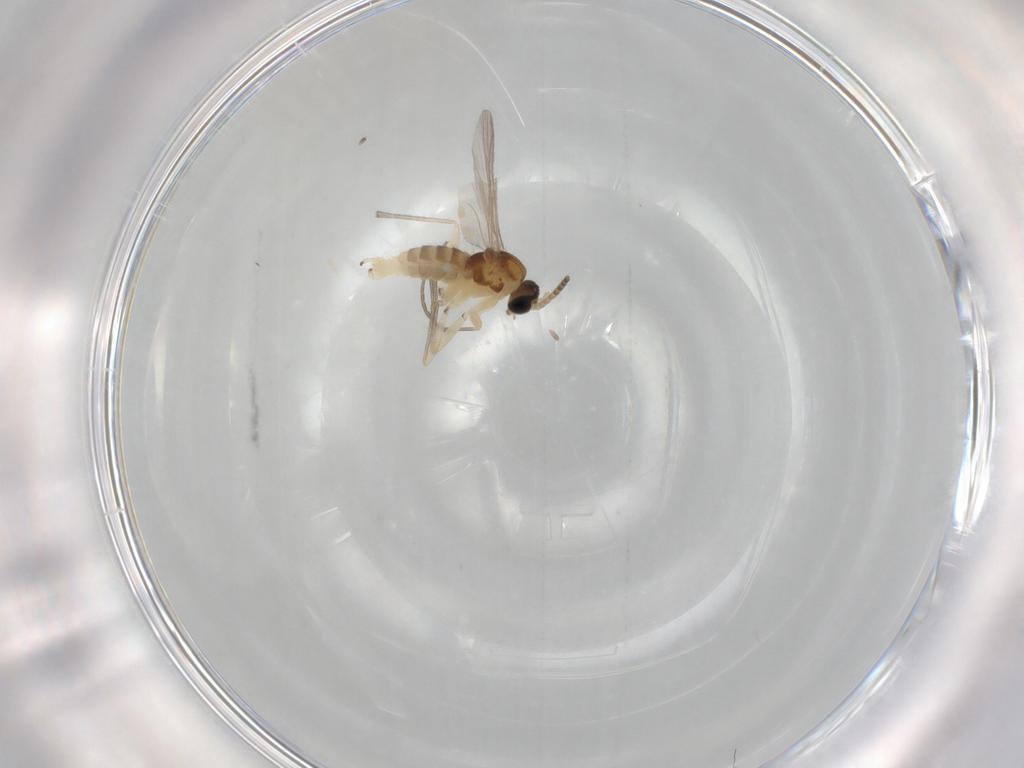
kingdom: Animalia
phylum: Arthropoda
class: Insecta
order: Diptera
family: Sciaridae
